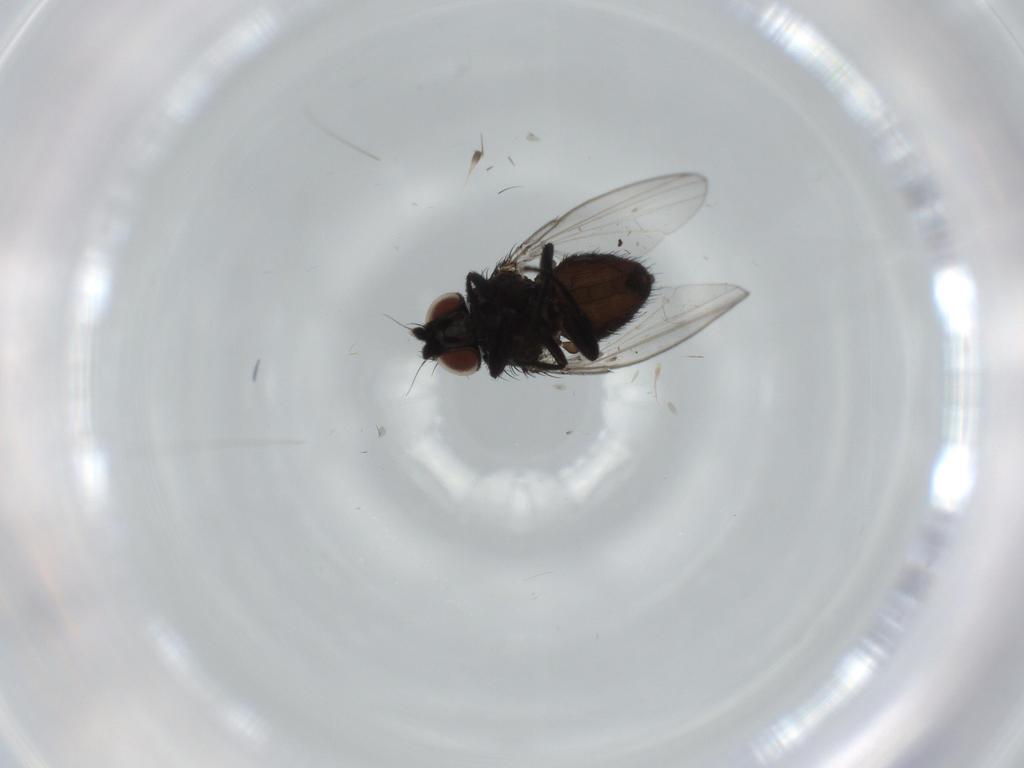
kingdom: Animalia
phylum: Arthropoda
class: Insecta
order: Diptera
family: Milichiidae
